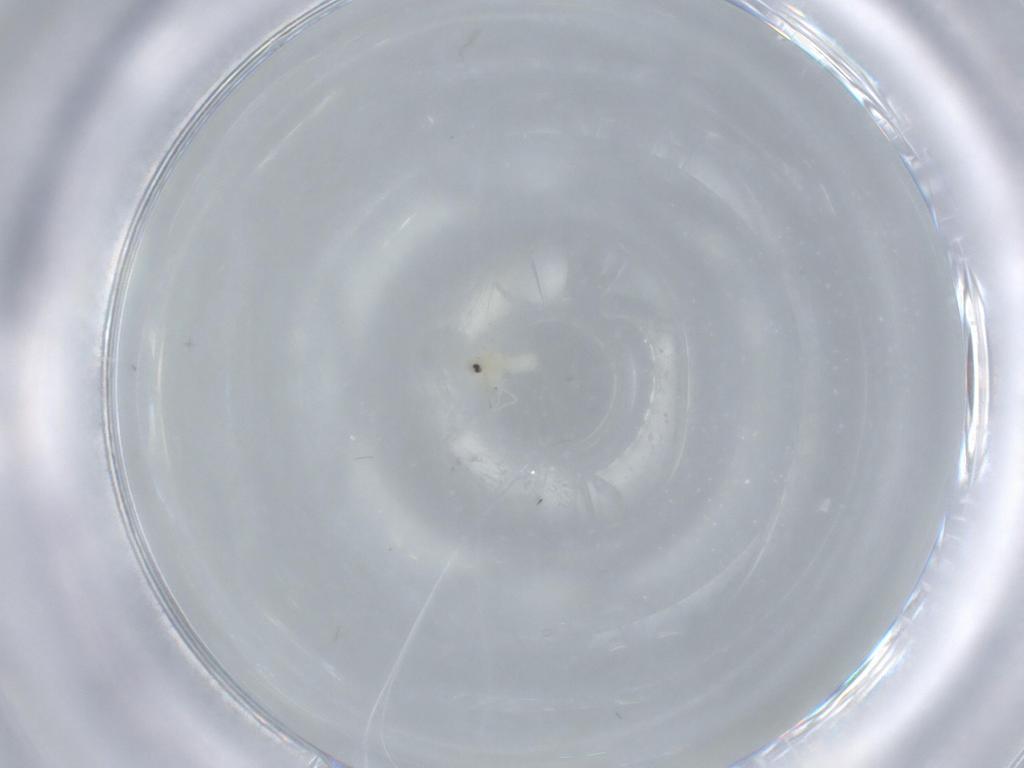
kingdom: Animalia
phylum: Arthropoda
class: Insecta
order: Hemiptera
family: Aleyrodidae
